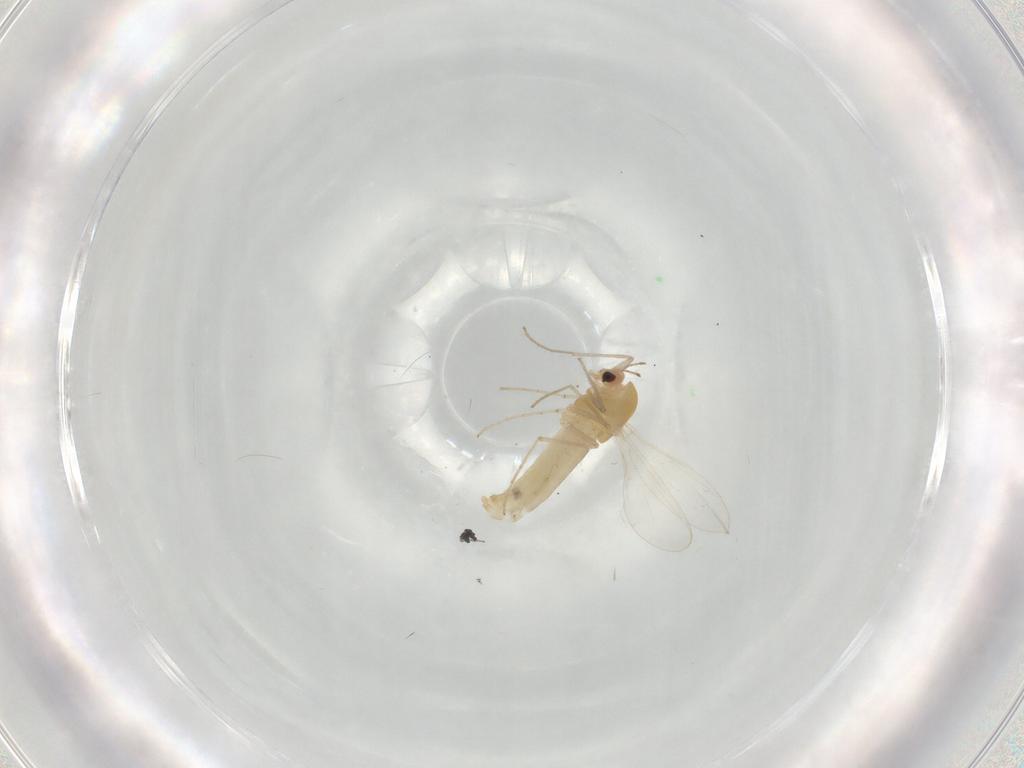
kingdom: Animalia
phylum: Arthropoda
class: Insecta
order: Diptera
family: Chironomidae
